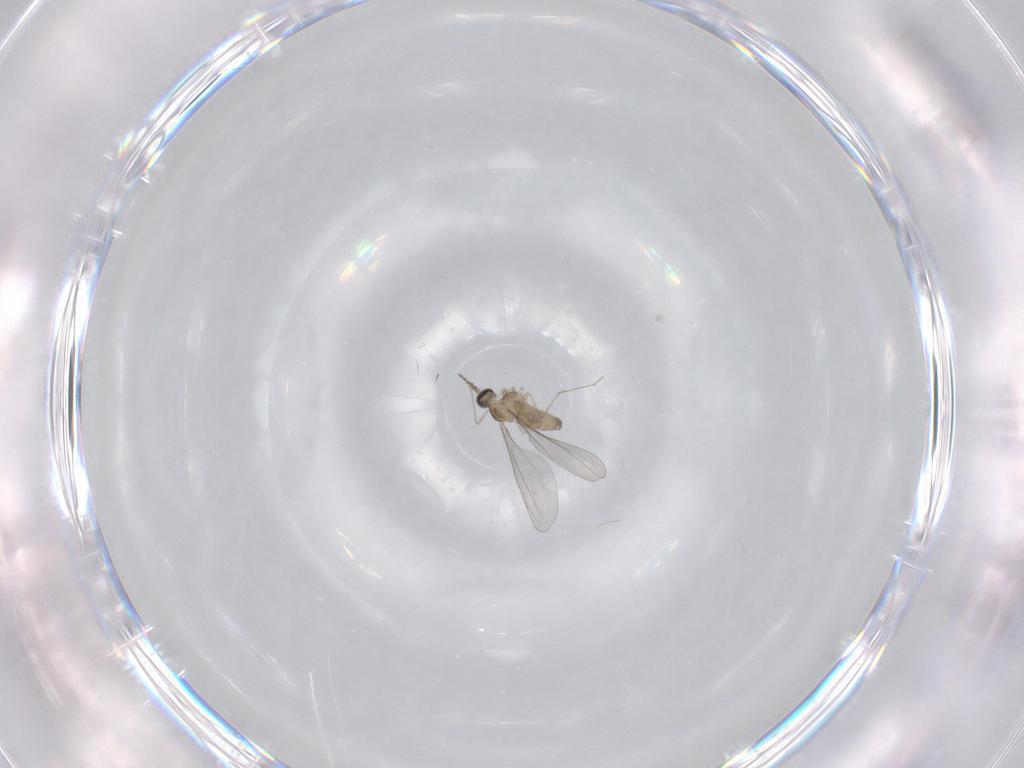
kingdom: Animalia
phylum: Arthropoda
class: Insecta
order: Diptera
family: Cecidomyiidae
